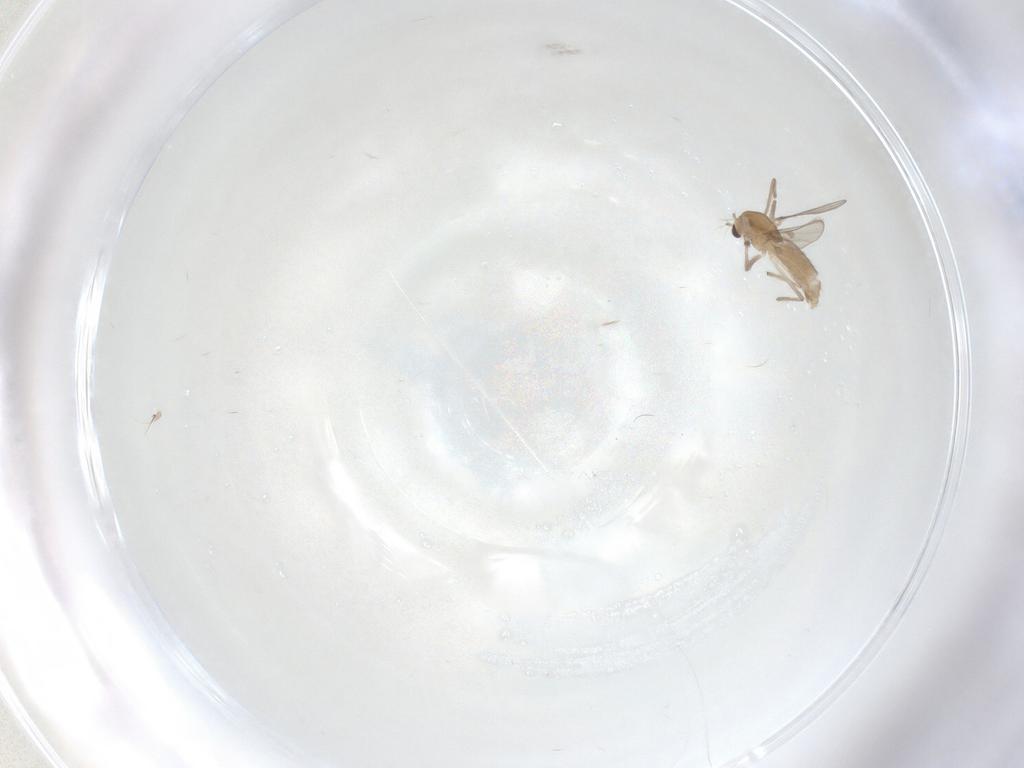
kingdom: Animalia
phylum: Arthropoda
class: Insecta
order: Diptera
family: Chironomidae
